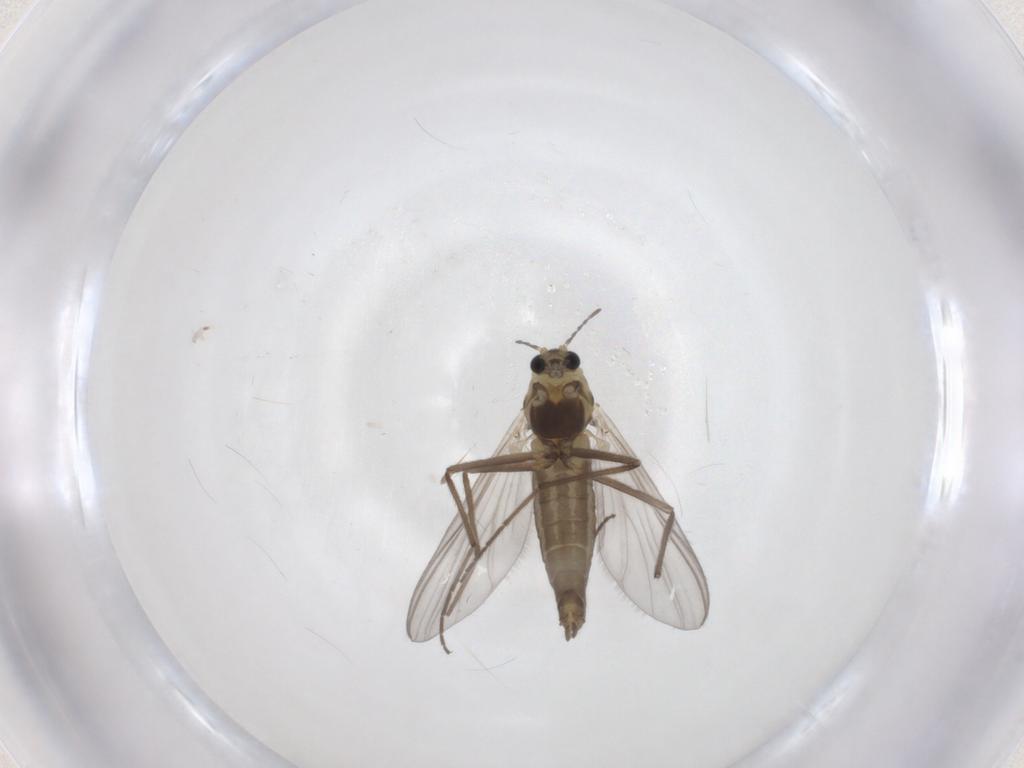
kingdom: Animalia
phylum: Arthropoda
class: Insecta
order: Diptera
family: Chironomidae
